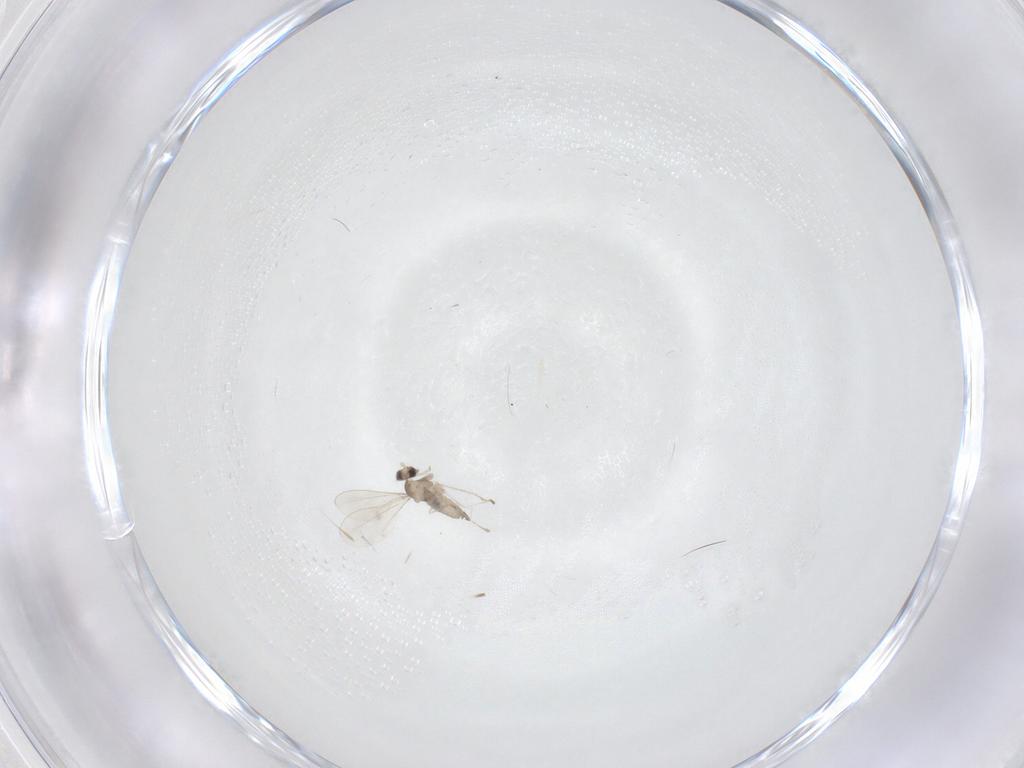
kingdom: Animalia
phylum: Arthropoda
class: Insecta
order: Diptera
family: Cecidomyiidae
